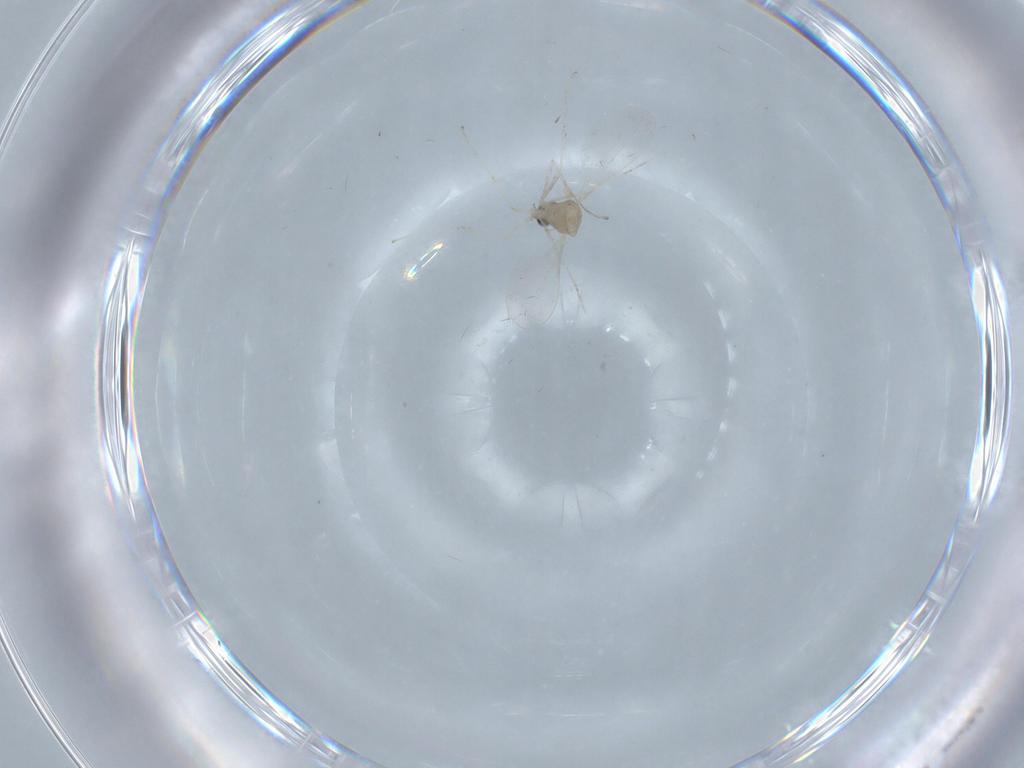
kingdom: Animalia
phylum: Arthropoda
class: Insecta
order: Diptera
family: Cecidomyiidae
